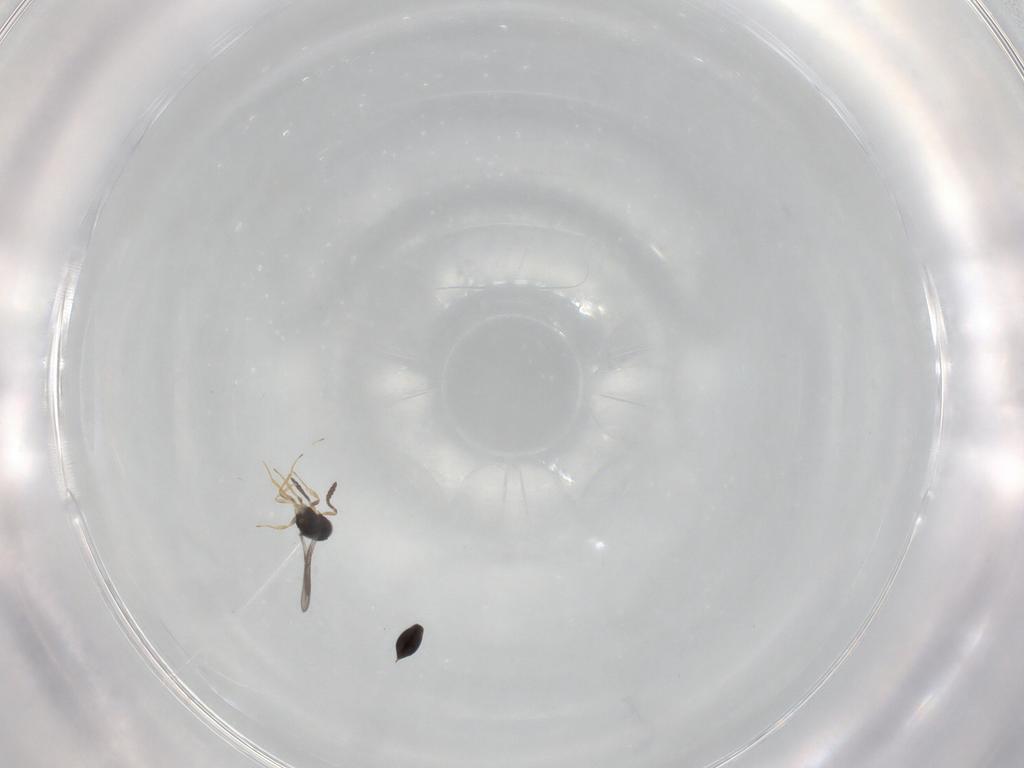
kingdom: Animalia
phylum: Arthropoda
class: Insecta
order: Hymenoptera
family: Scelionidae
